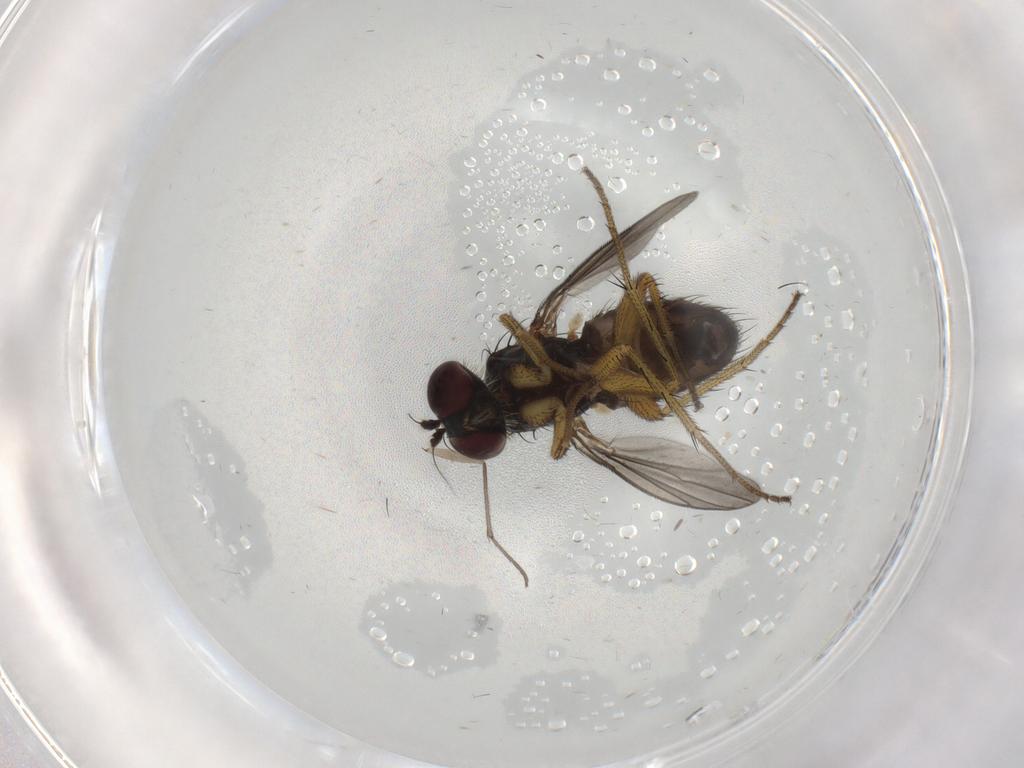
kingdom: Animalia
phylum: Arthropoda
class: Insecta
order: Diptera
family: Dolichopodidae
